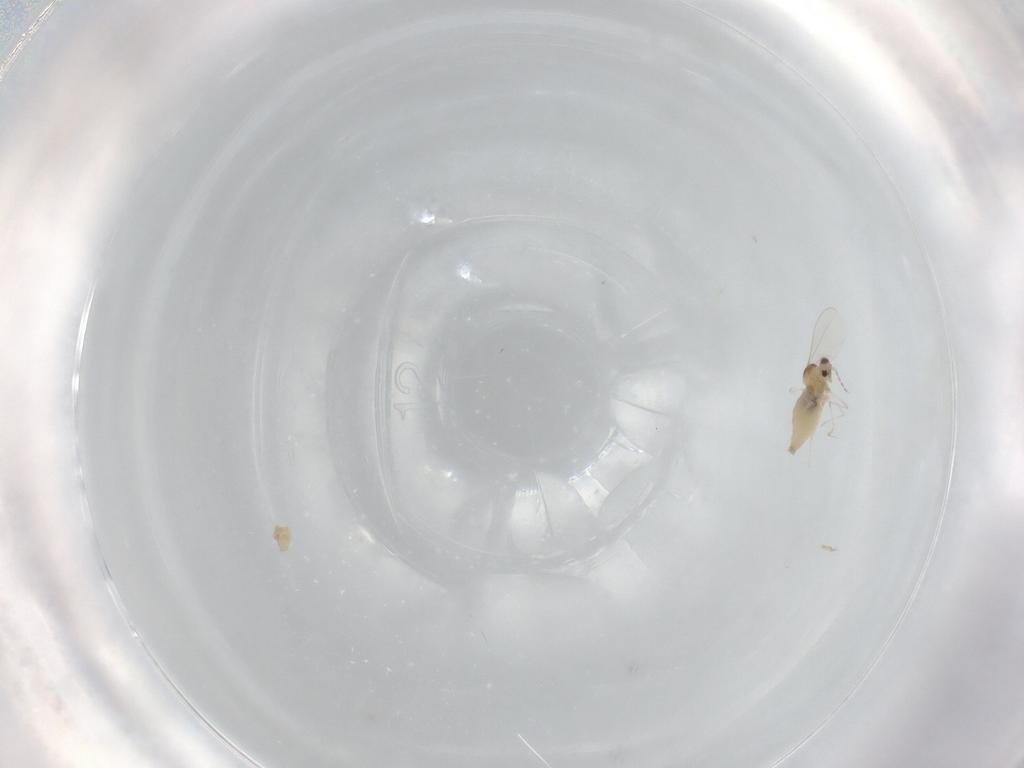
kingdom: Animalia
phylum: Arthropoda
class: Insecta
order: Diptera
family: Cecidomyiidae
